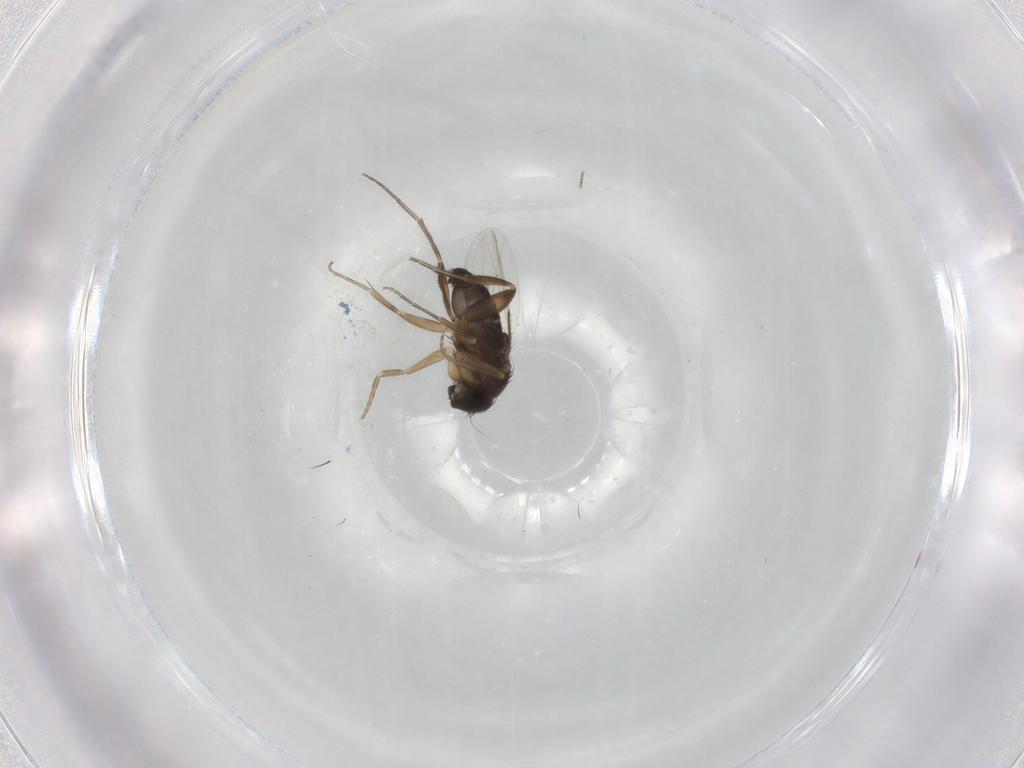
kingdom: Animalia
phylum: Arthropoda
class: Insecta
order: Diptera
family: Phoridae
